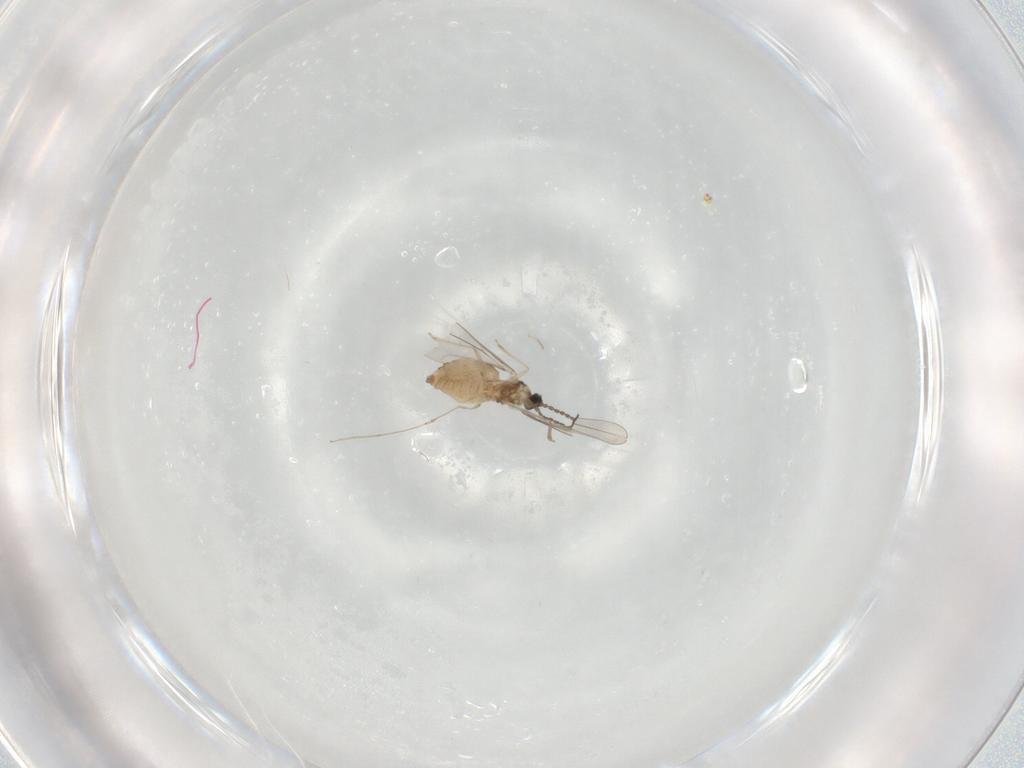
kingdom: Animalia
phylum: Arthropoda
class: Insecta
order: Diptera
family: Cecidomyiidae
